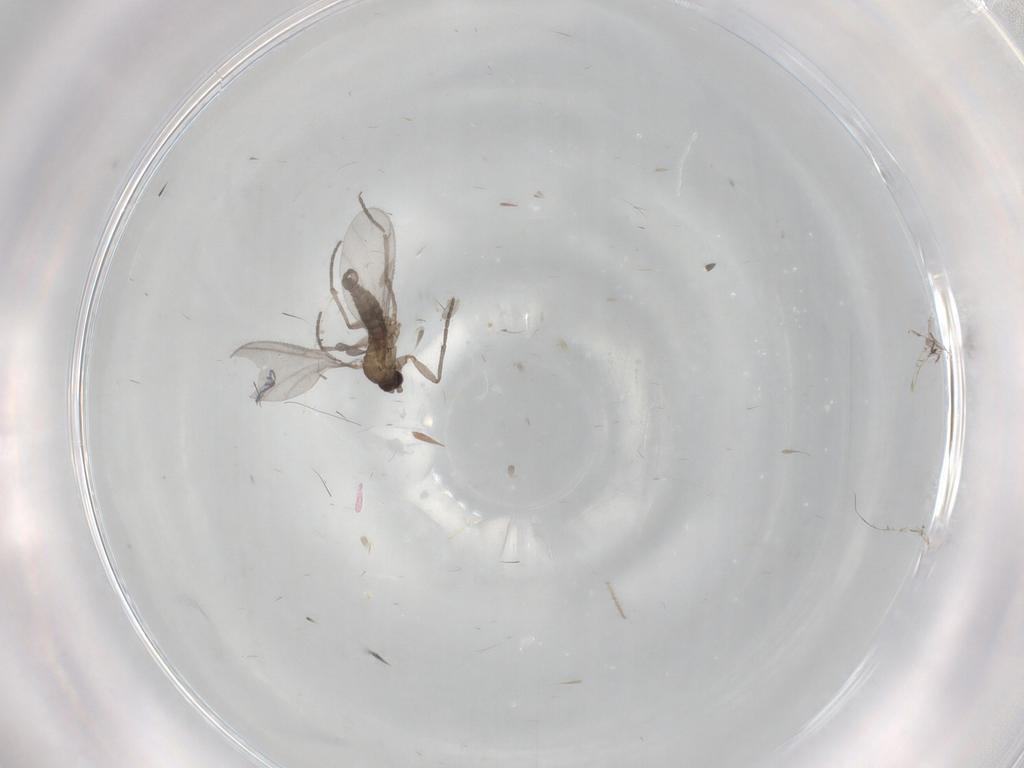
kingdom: Animalia
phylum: Arthropoda
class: Insecta
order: Diptera
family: Sciaridae
